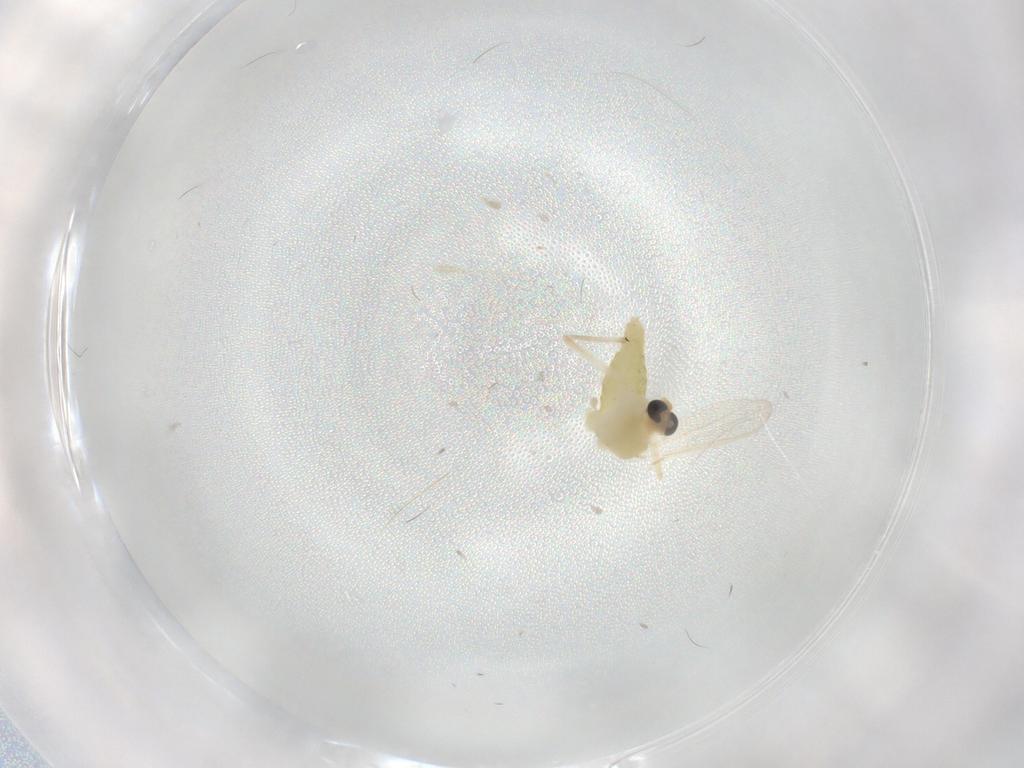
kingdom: Animalia
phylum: Arthropoda
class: Insecta
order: Diptera
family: Chironomidae
